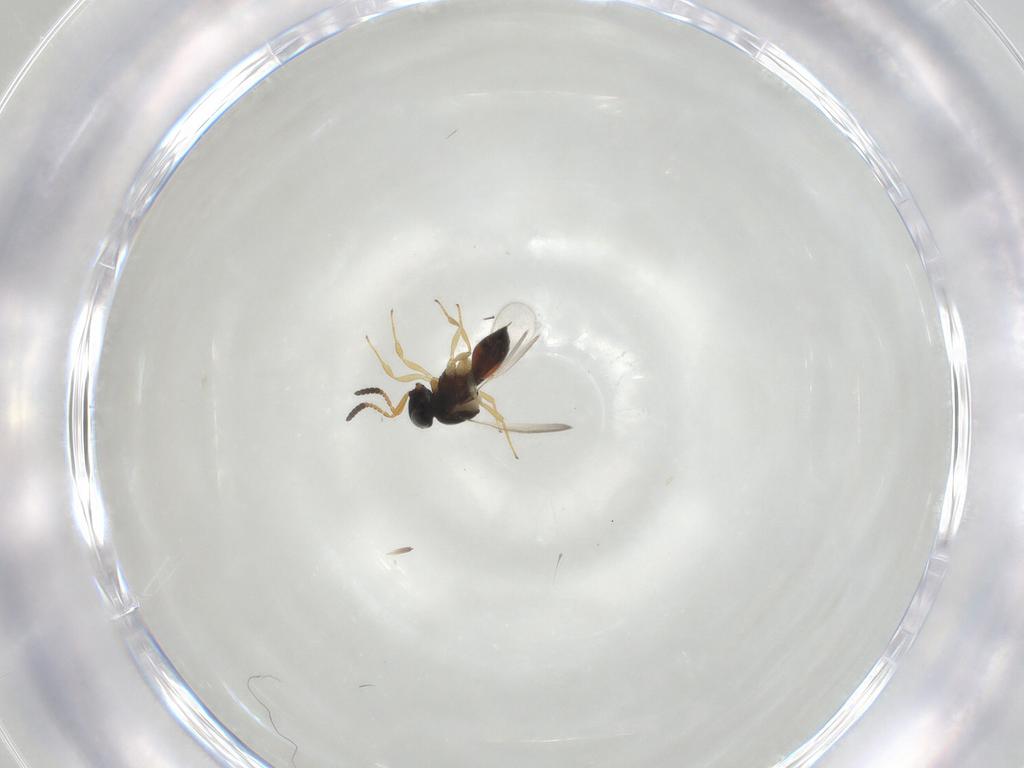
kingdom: Animalia
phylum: Arthropoda
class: Insecta
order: Hymenoptera
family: Scelionidae
